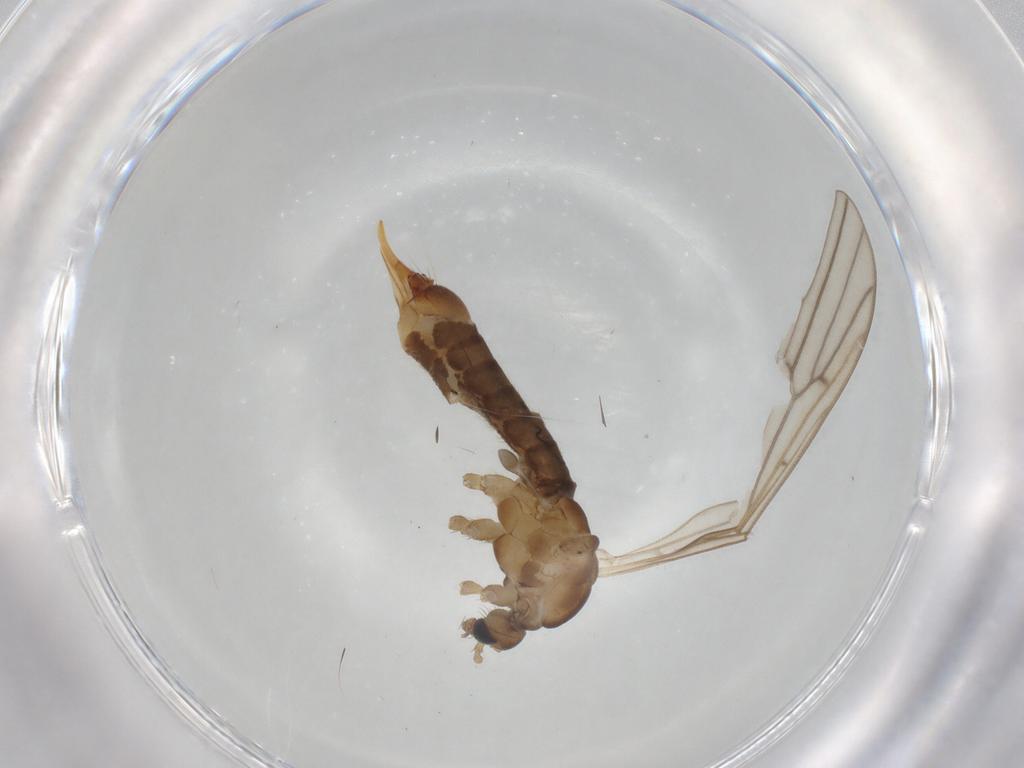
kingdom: Animalia
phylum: Arthropoda
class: Insecta
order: Diptera
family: Limoniidae
